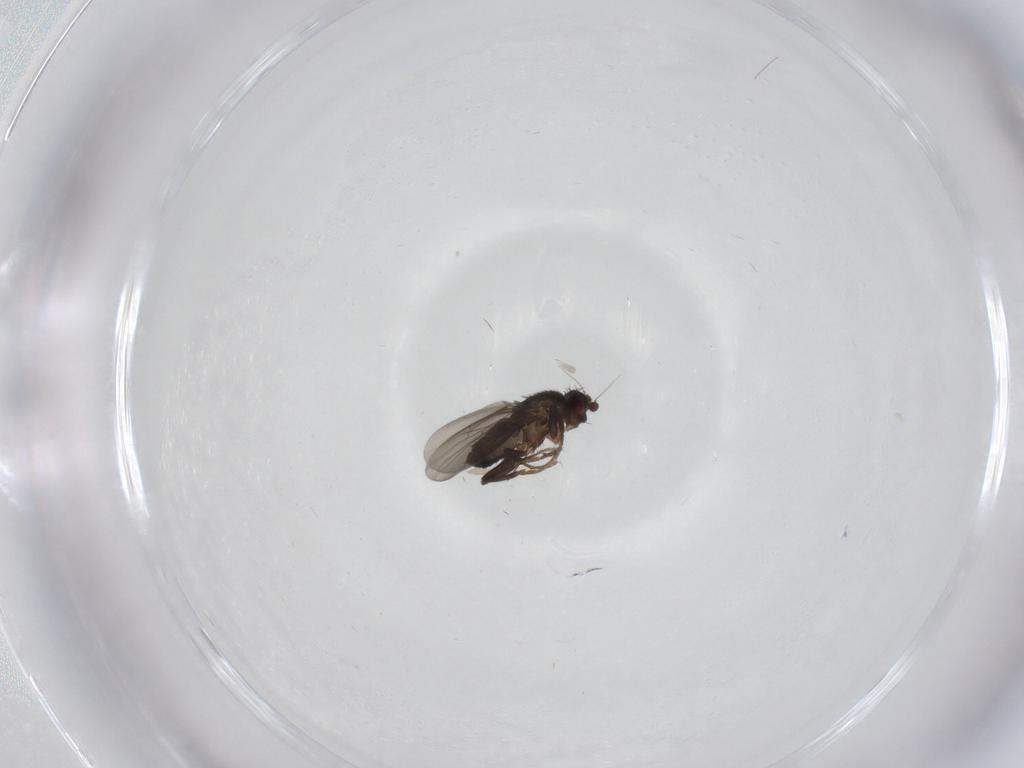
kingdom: Animalia
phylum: Arthropoda
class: Insecta
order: Diptera
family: Sphaeroceridae
